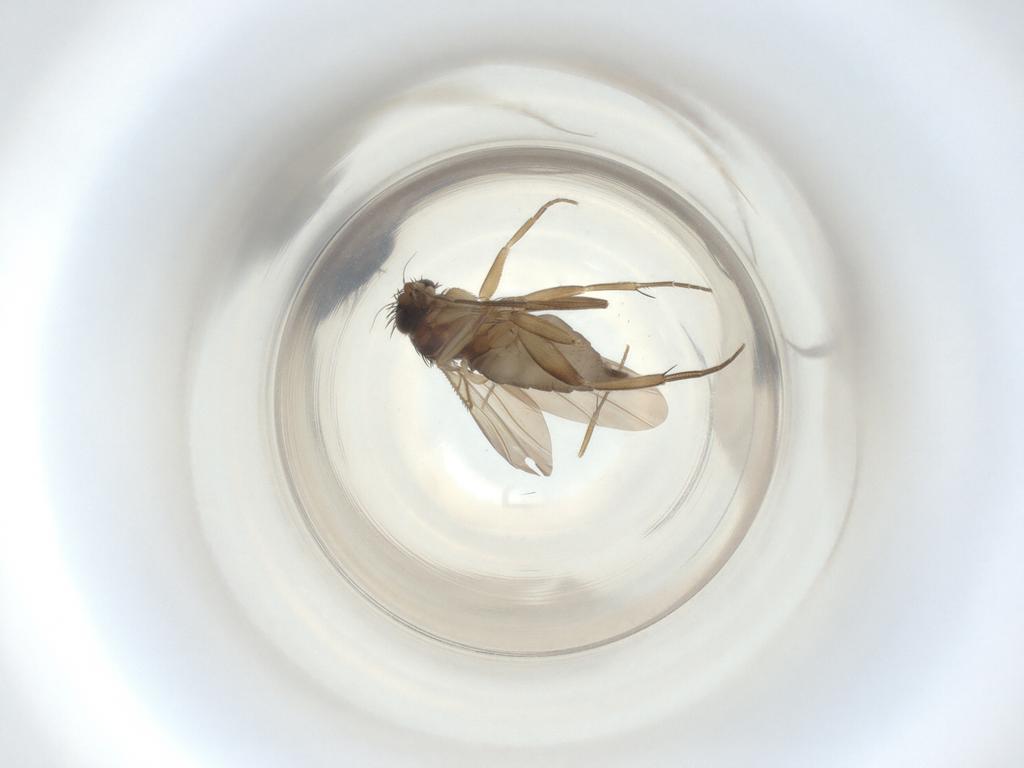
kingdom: Animalia
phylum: Arthropoda
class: Insecta
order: Diptera
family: Phoridae
